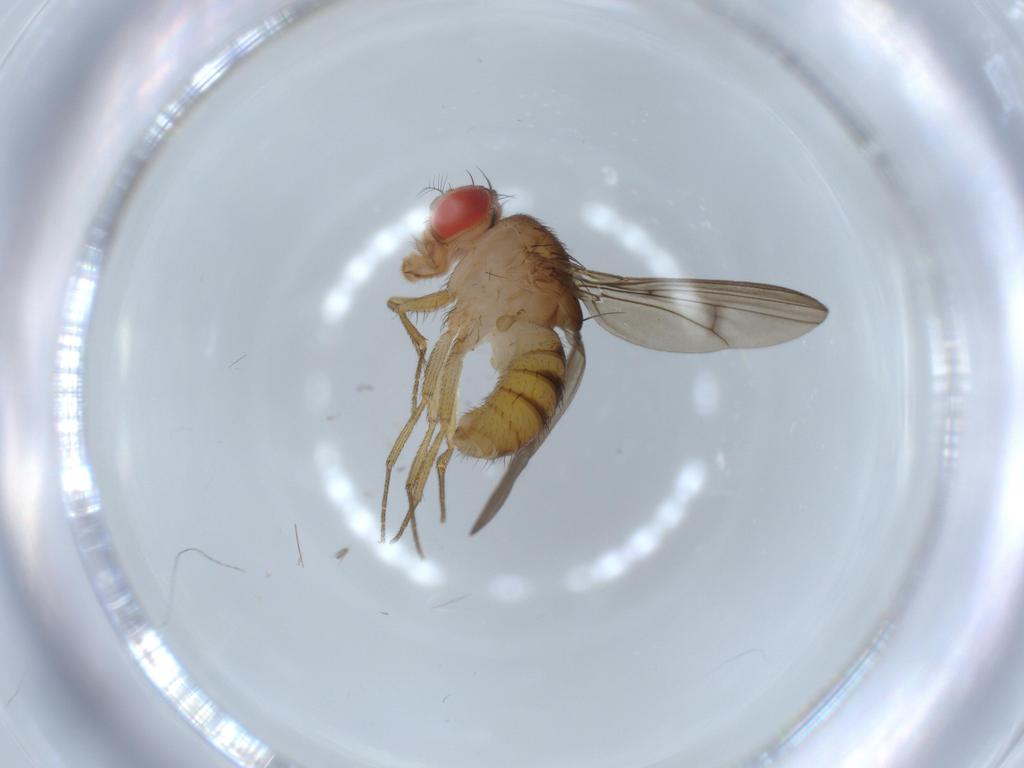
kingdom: Animalia
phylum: Arthropoda
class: Insecta
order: Diptera
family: Drosophilidae
